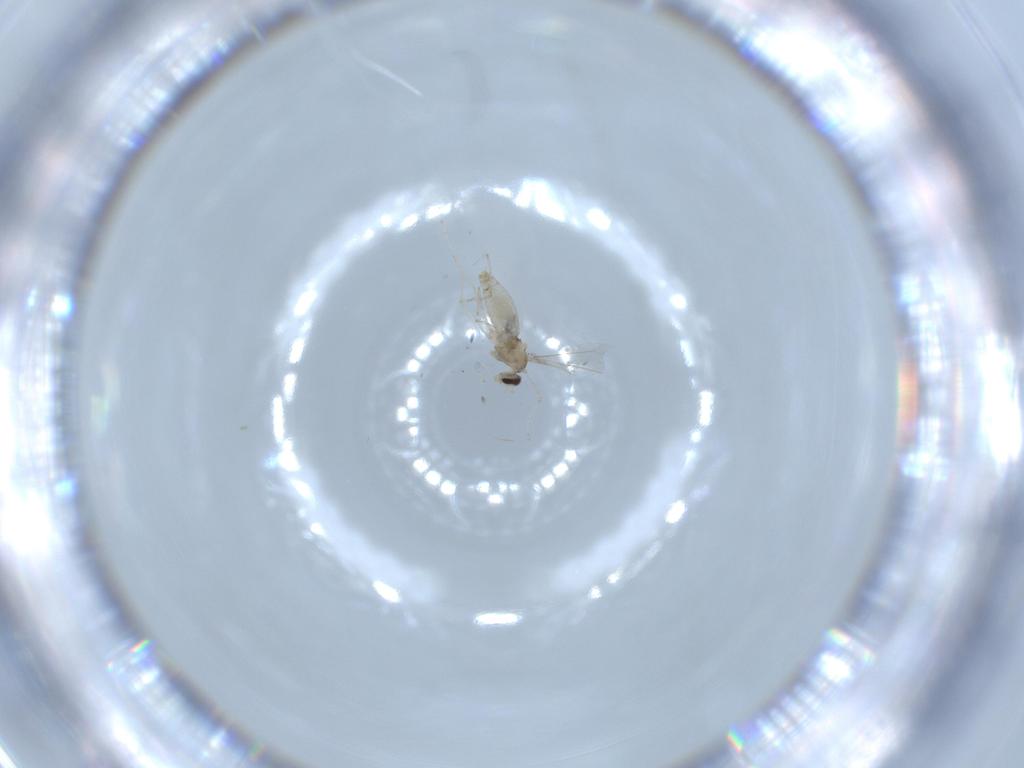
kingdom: Animalia
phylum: Arthropoda
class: Insecta
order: Diptera
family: Cecidomyiidae
